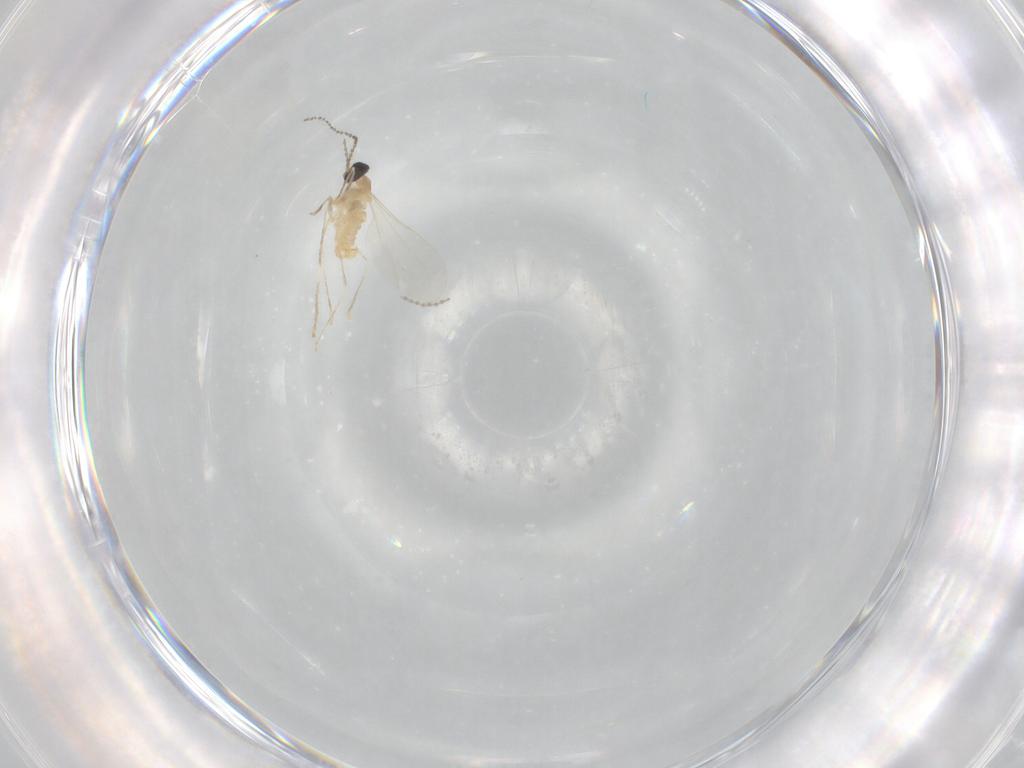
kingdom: Animalia
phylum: Arthropoda
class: Insecta
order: Diptera
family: Cecidomyiidae
